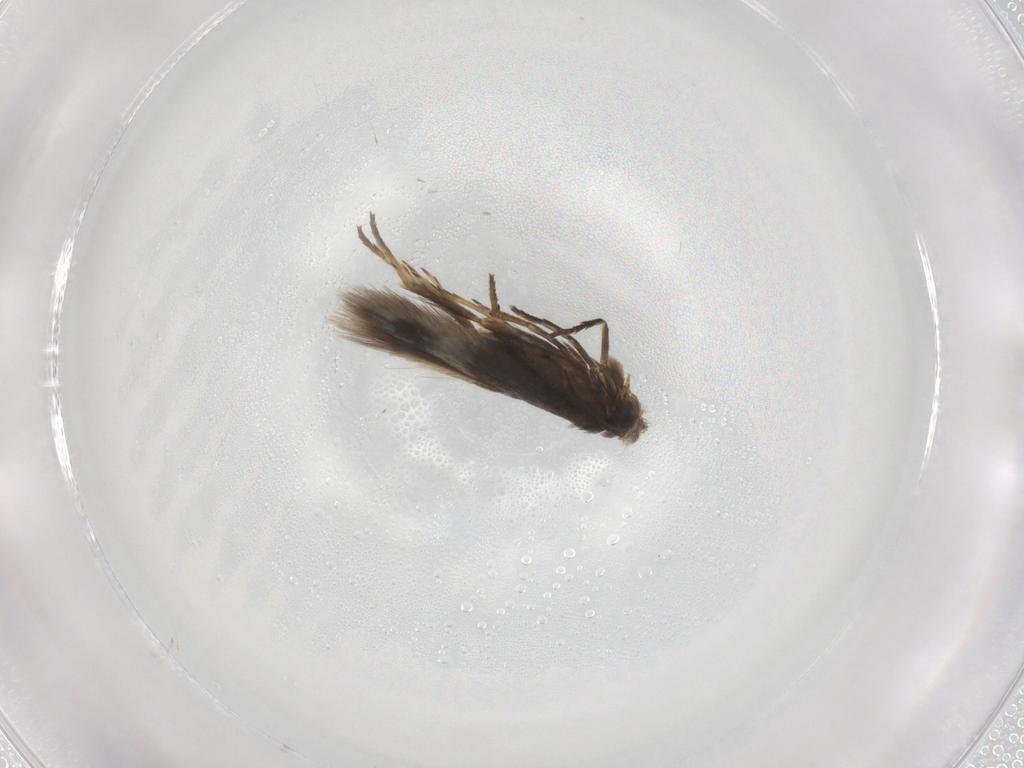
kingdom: Animalia
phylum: Arthropoda
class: Insecta
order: Lepidoptera
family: Nepticulidae
